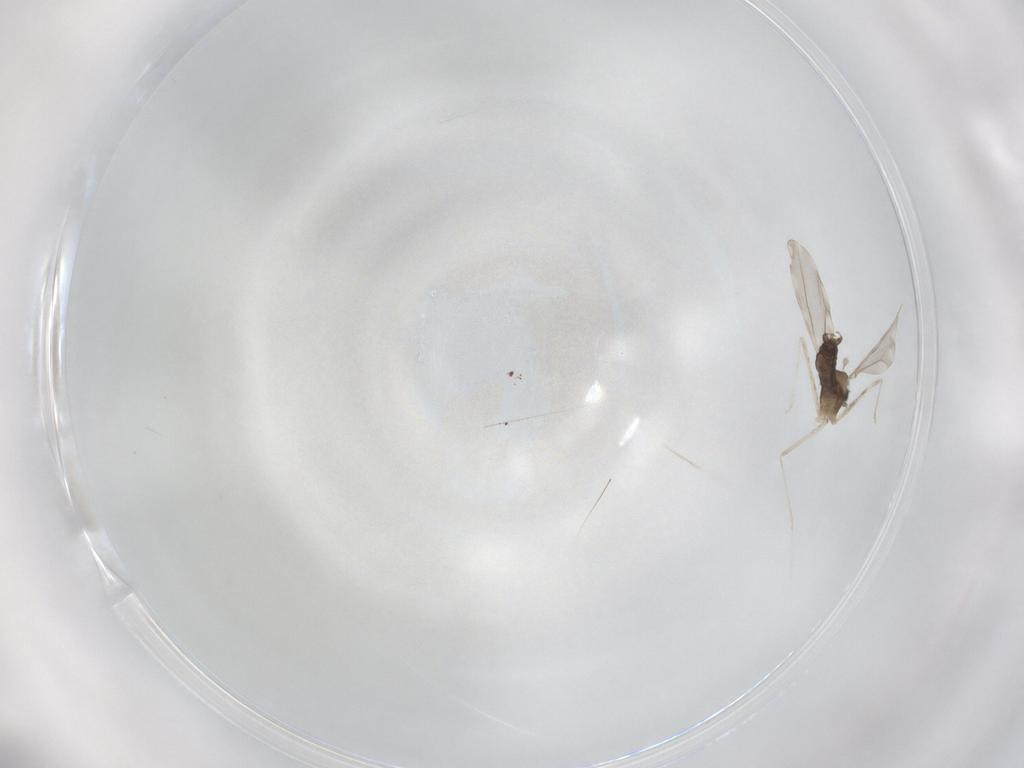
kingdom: Animalia
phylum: Arthropoda
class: Insecta
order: Diptera
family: Cecidomyiidae
